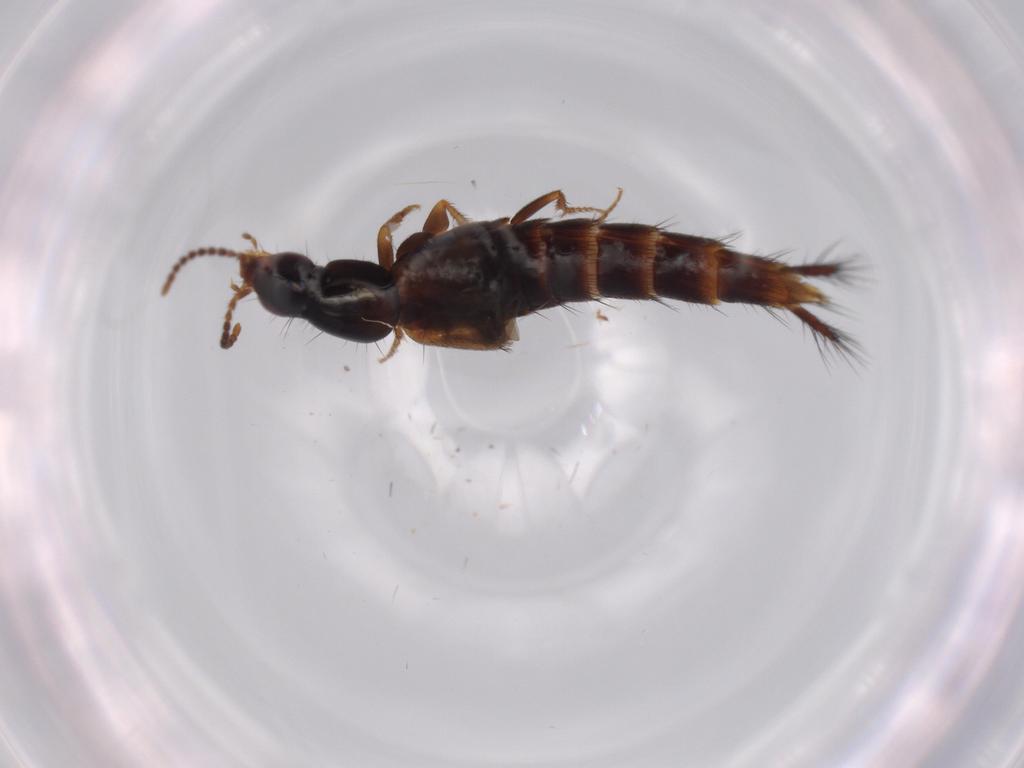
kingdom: Animalia
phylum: Arthropoda
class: Insecta
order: Coleoptera
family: Staphylinidae
